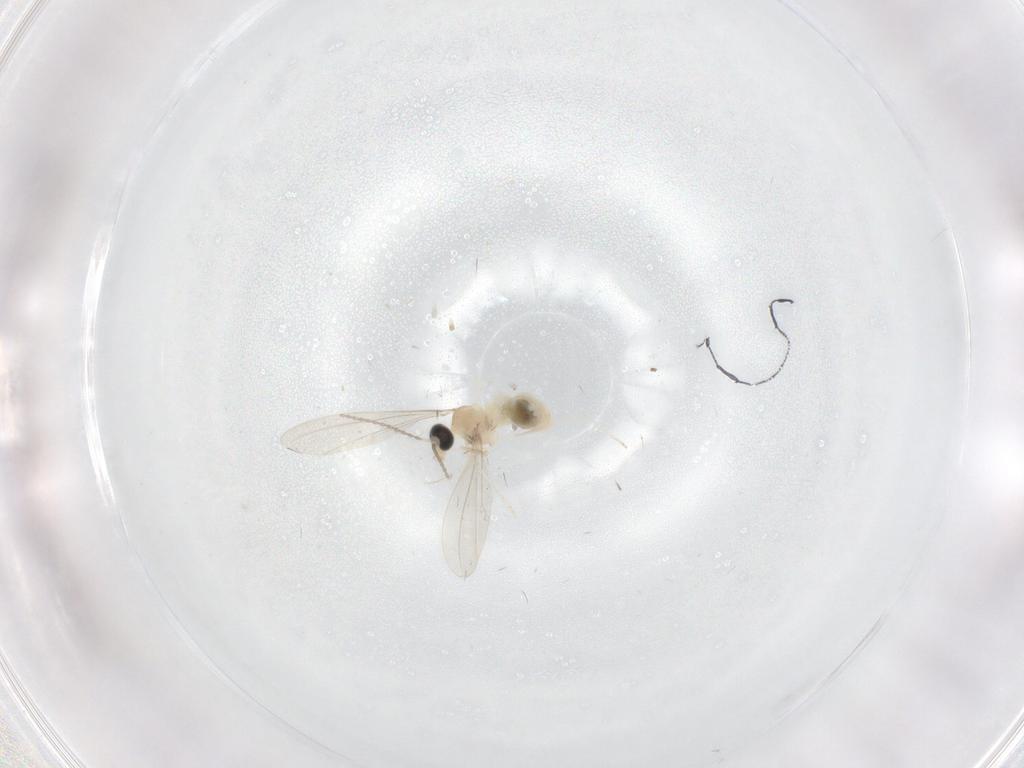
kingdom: Animalia
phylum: Arthropoda
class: Insecta
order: Diptera
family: Cecidomyiidae
